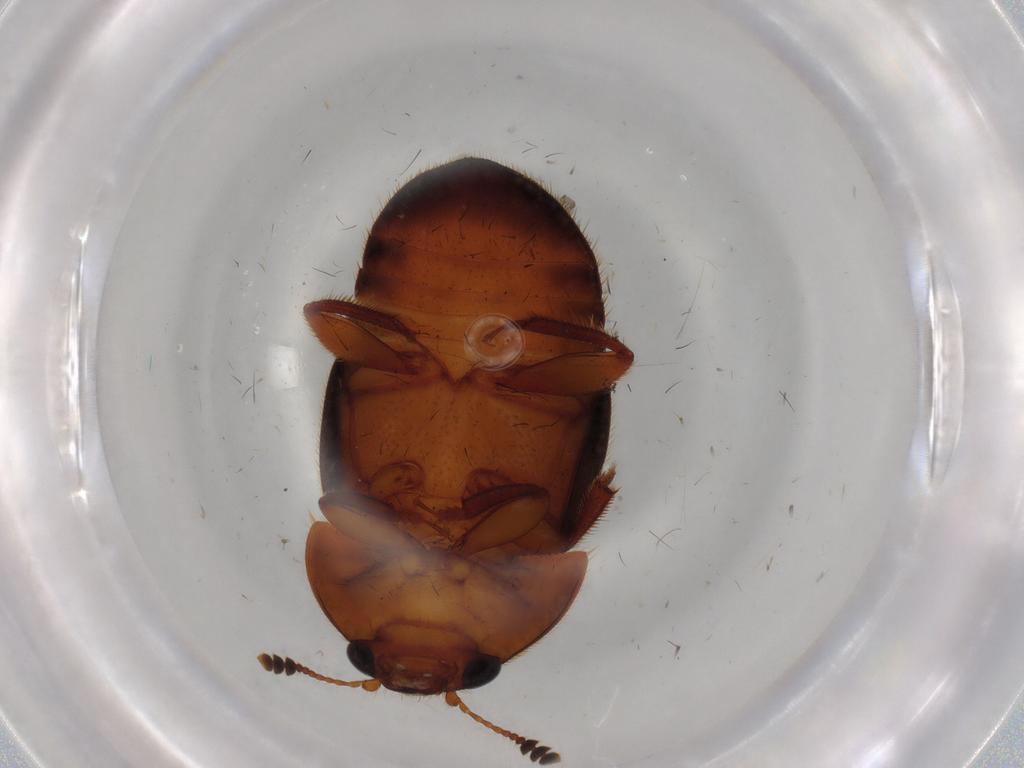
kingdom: Animalia
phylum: Arthropoda
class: Insecta
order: Coleoptera
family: Nitidulidae
